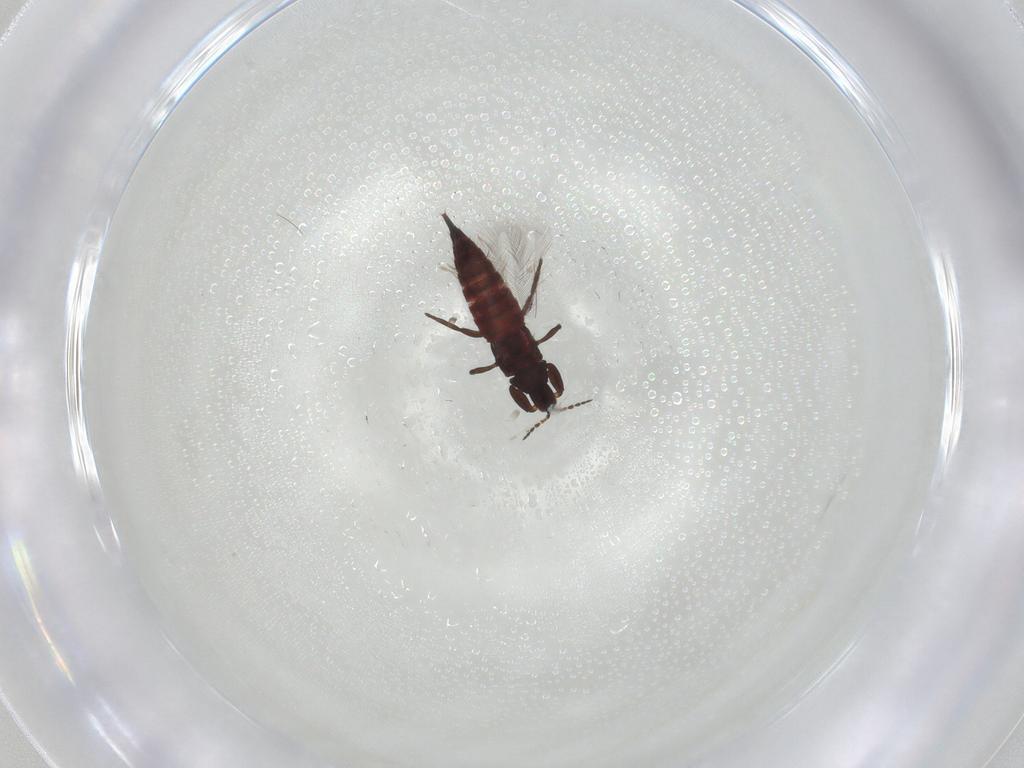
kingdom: Animalia
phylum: Arthropoda
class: Insecta
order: Thysanoptera
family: Phlaeothripidae
